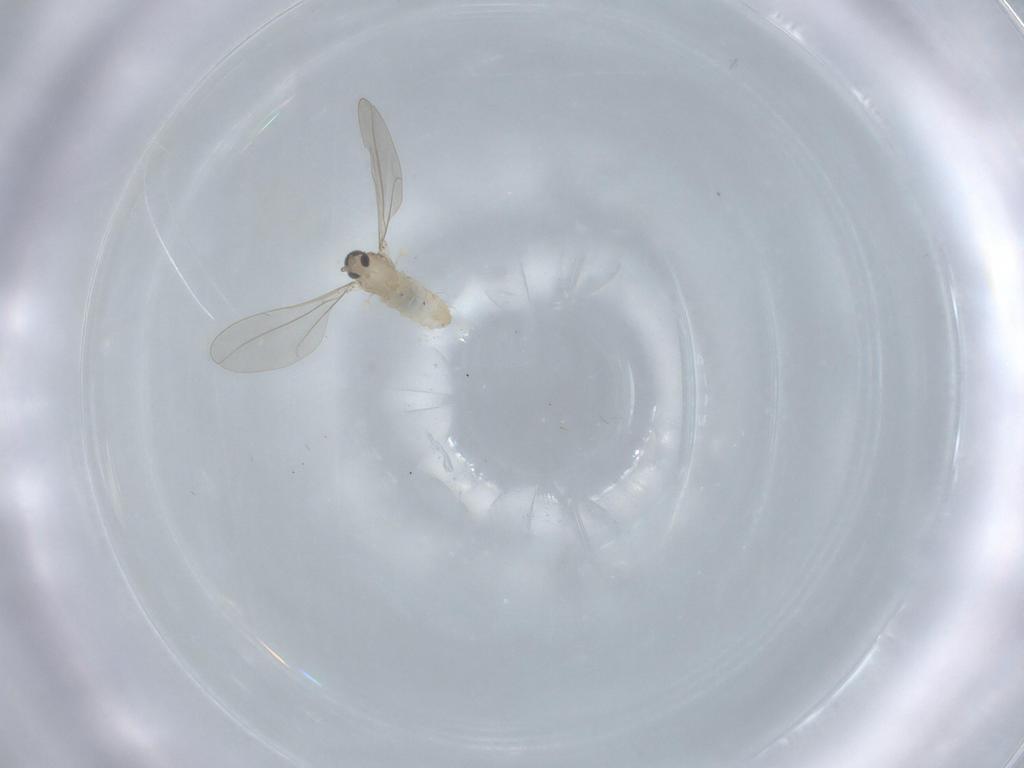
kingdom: Animalia
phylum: Arthropoda
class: Insecta
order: Diptera
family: Cecidomyiidae
